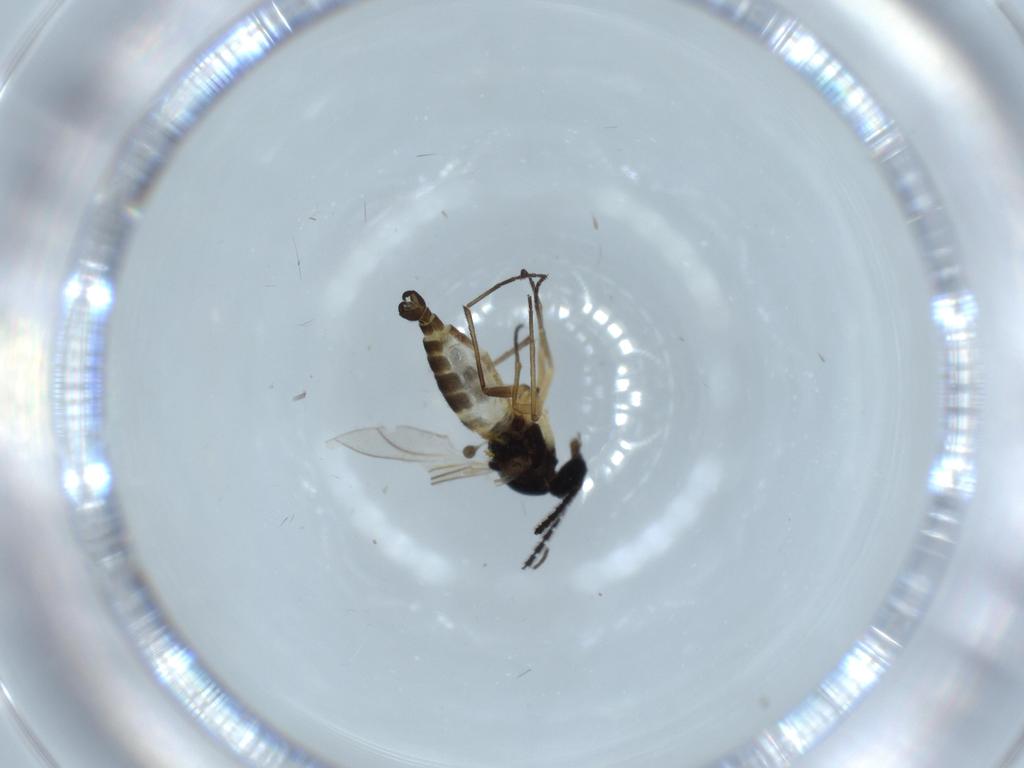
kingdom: Animalia
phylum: Arthropoda
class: Insecta
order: Diptera
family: Sciaridae
